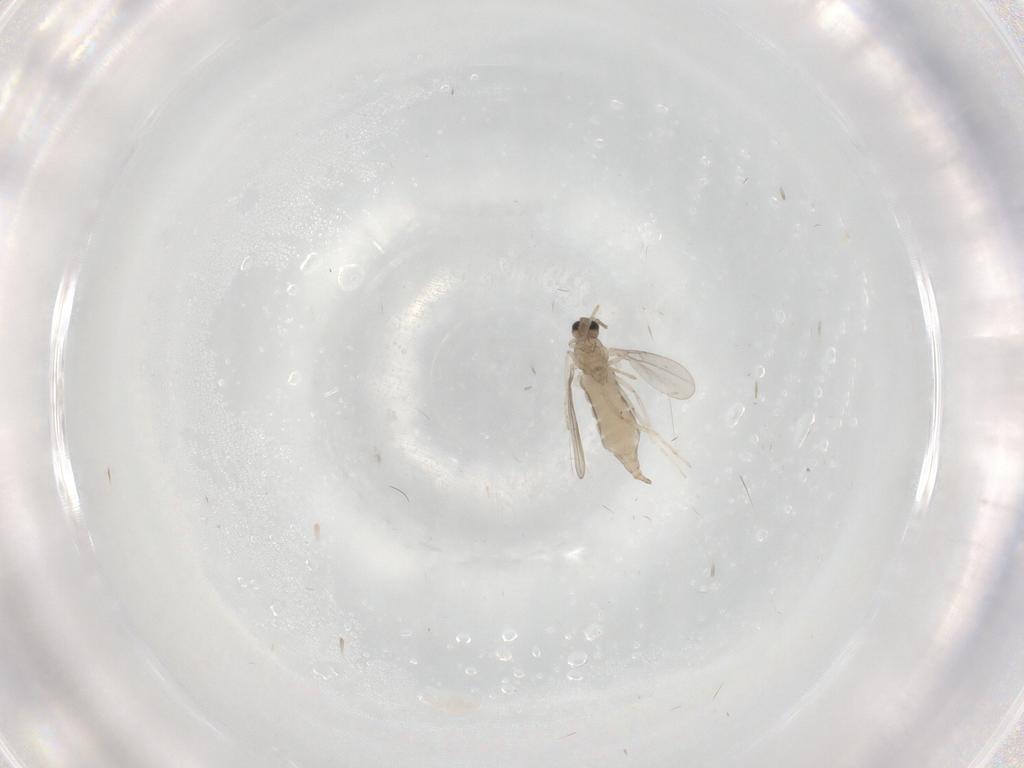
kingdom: Animalia
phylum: Arthropoda
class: Insecta
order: Diptera
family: Cecidomyiidae
